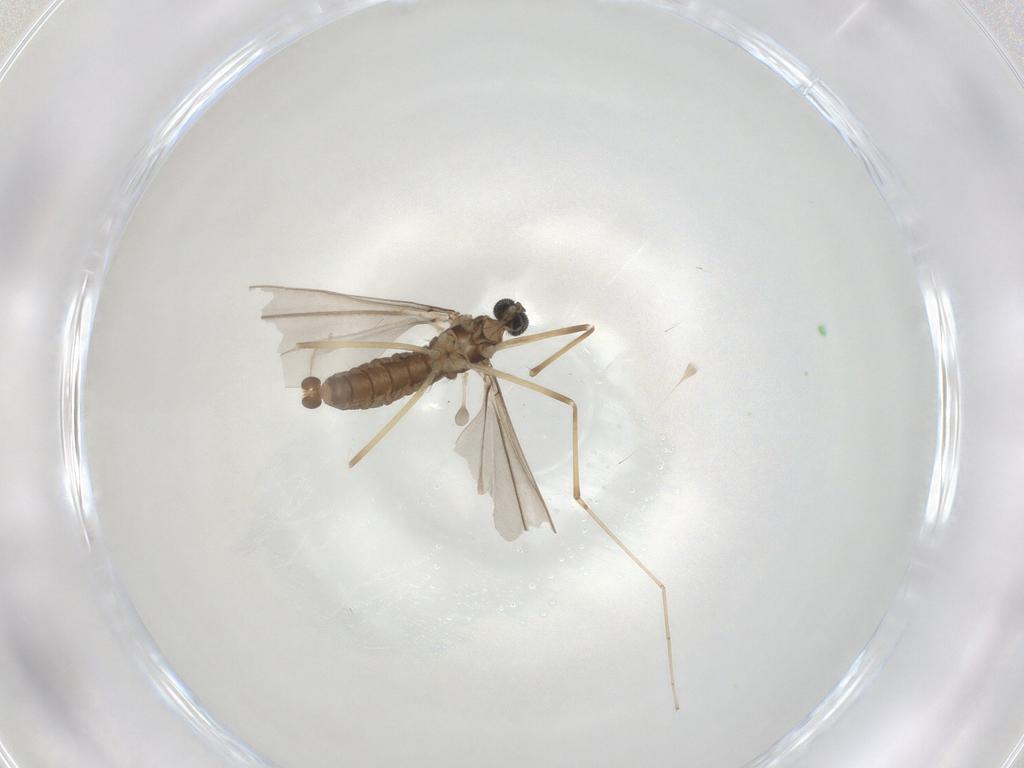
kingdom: Animalia
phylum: Arthropoda
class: Insecta
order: Diptera
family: Cecidomyiidae
